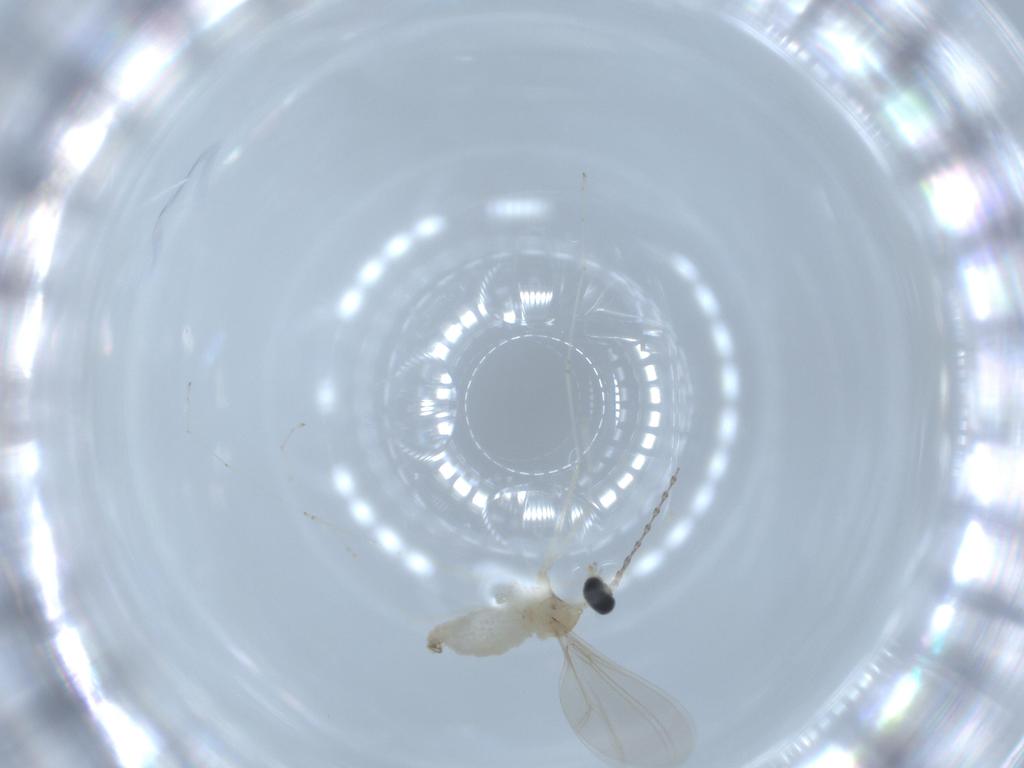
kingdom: Animalia
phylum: Arthropoda
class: Insecta
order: Diptera
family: Cecidomyiidae
